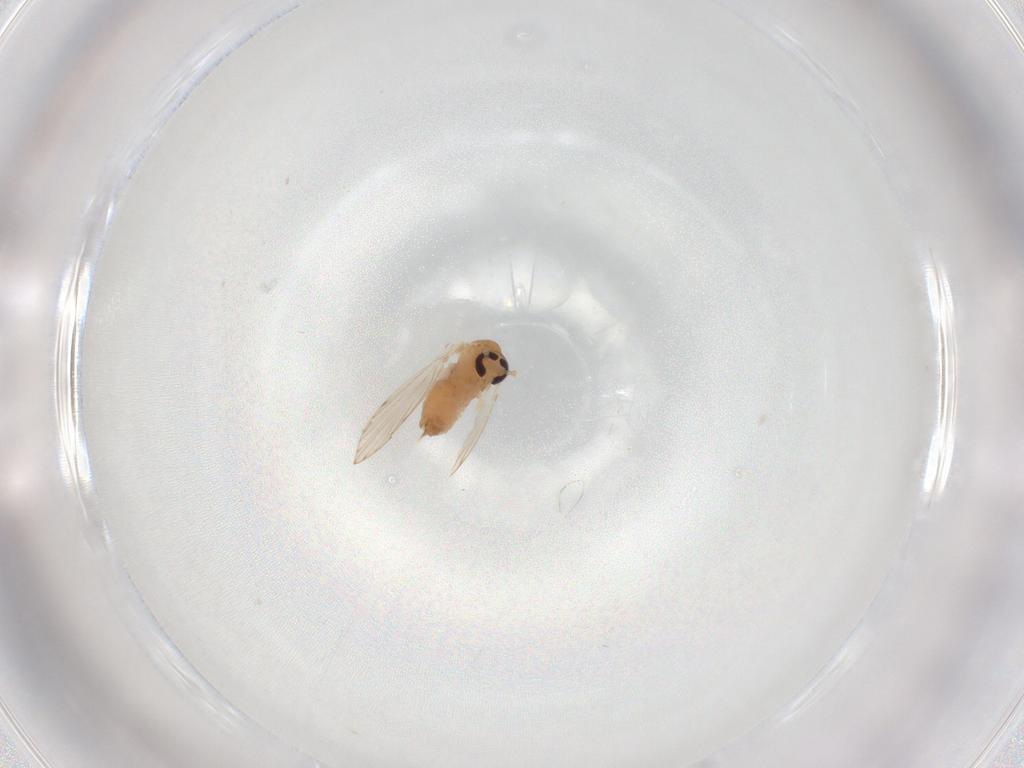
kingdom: Animalia
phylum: Arthropoda
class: Insecta
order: Diptera
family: Psychodidae
